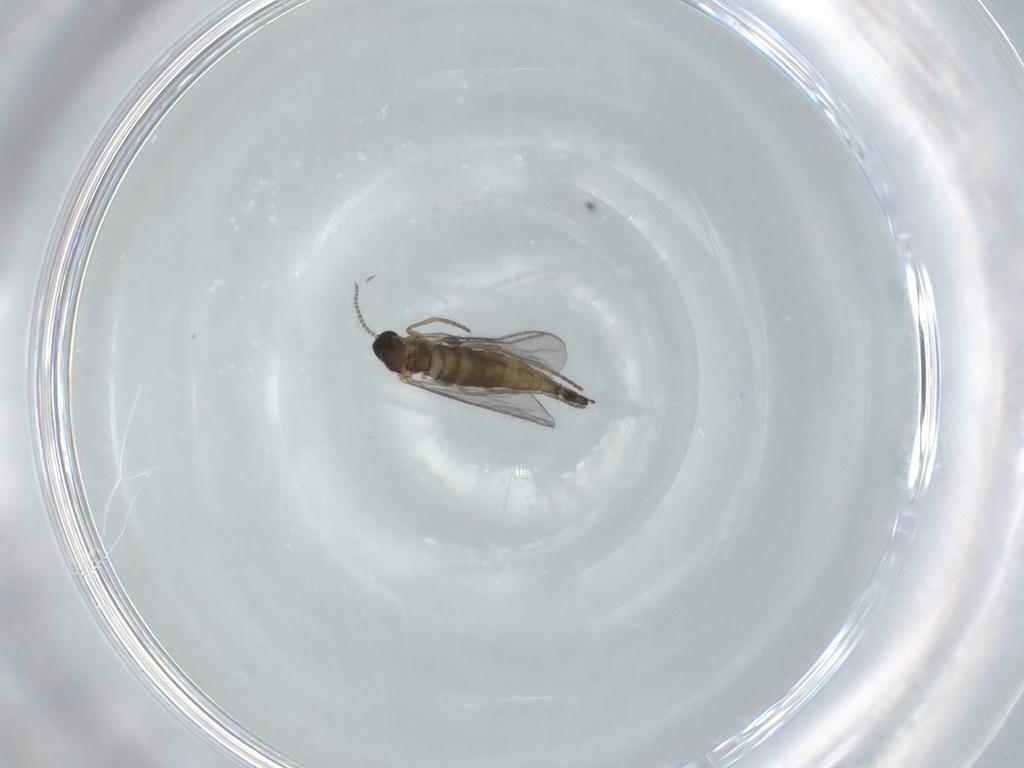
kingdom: Animalia
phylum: Arthropoda
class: Insecta
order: Diptera
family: Sciaridae
